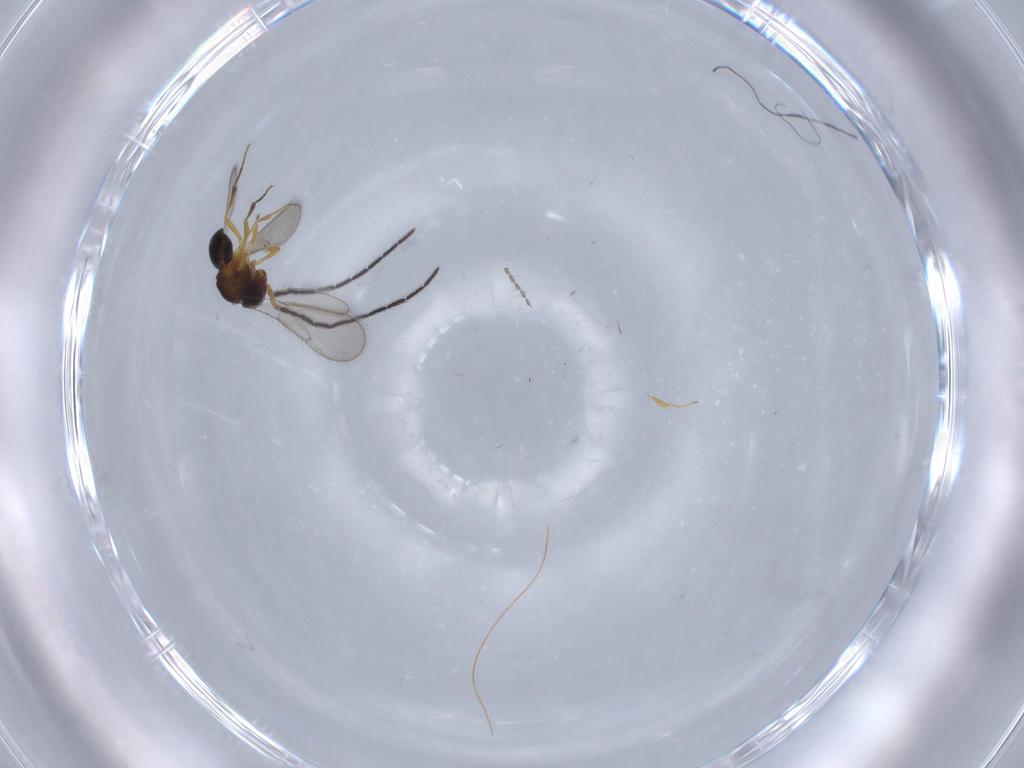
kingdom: Animalia
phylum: Arthropoda
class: Insecta
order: Hymenoptera
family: Scelionidae
